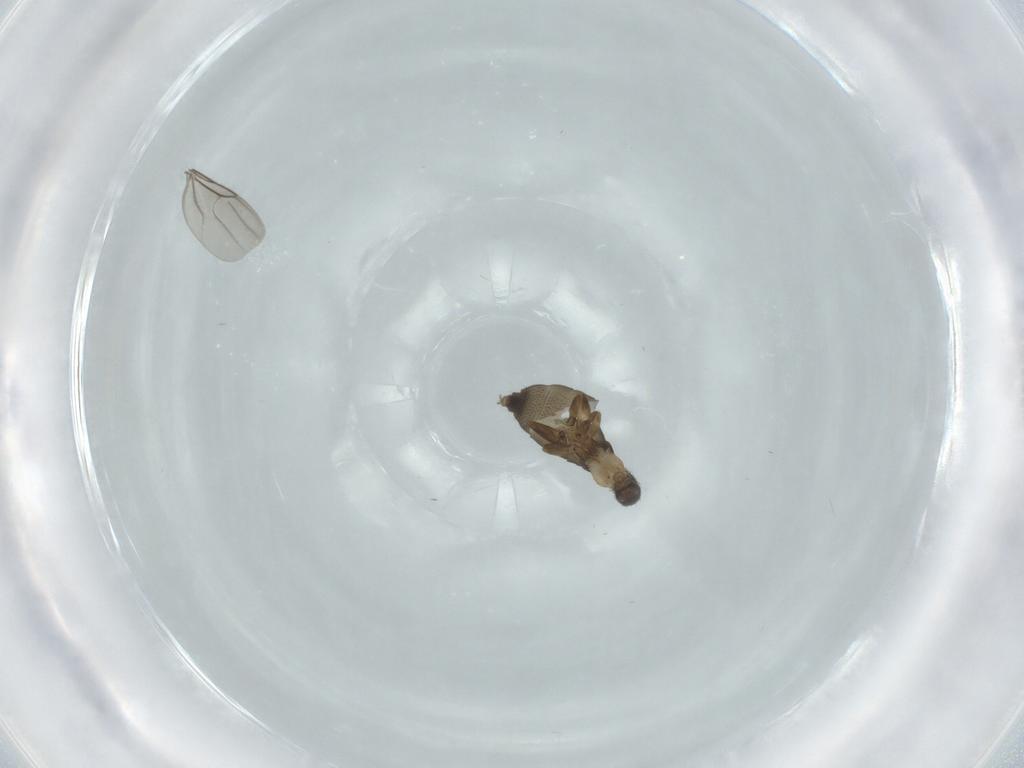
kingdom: Animalia
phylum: Arthropoda
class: Insecta
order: Diptera
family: Phoridae
